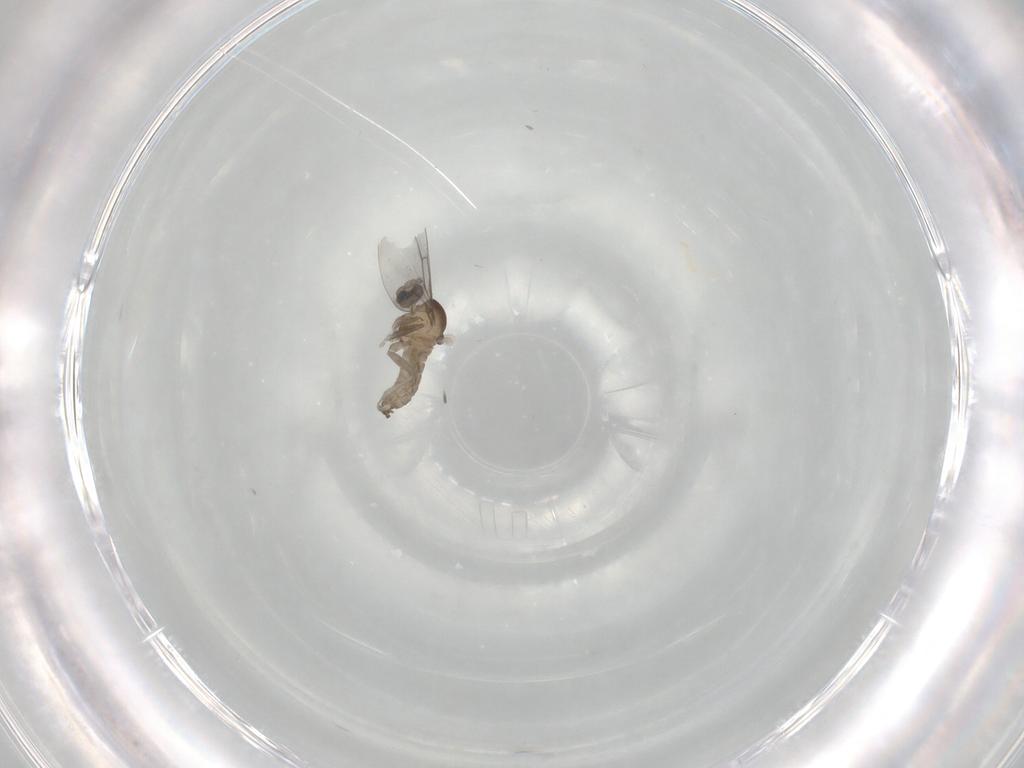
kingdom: Animalia
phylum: Arthropoda
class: Insecta
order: Diptera
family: Cecidomyiidae
